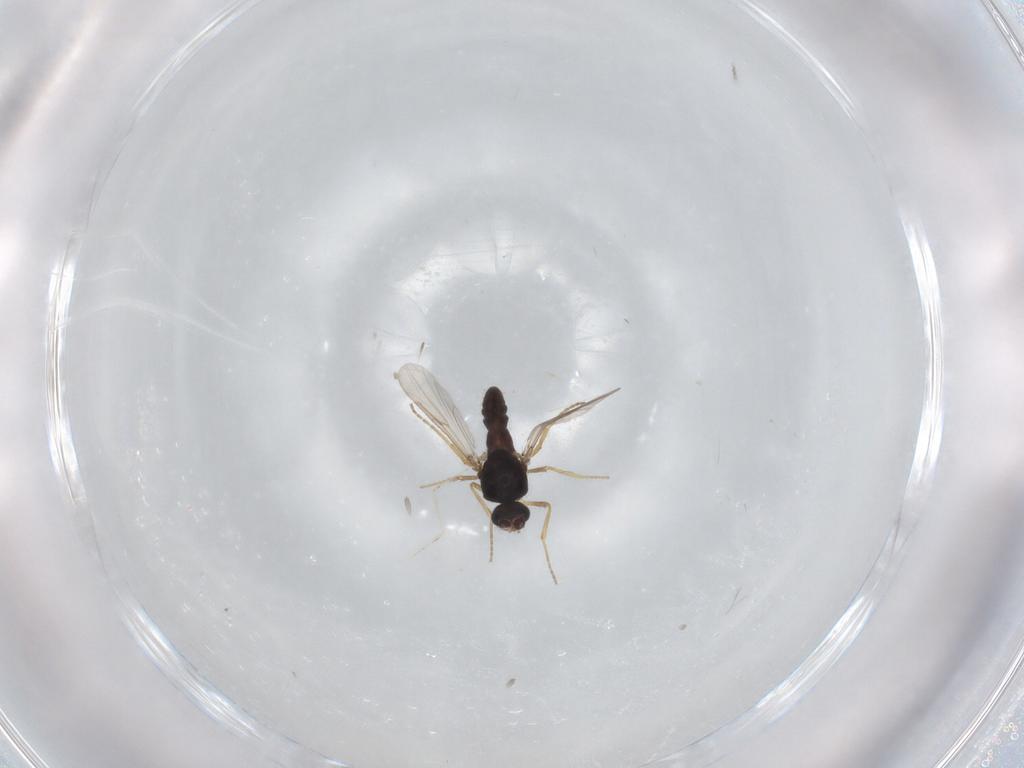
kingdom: Animalia
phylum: Arthropoda
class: Insecta
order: Diptera
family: Ceratopogonidae
